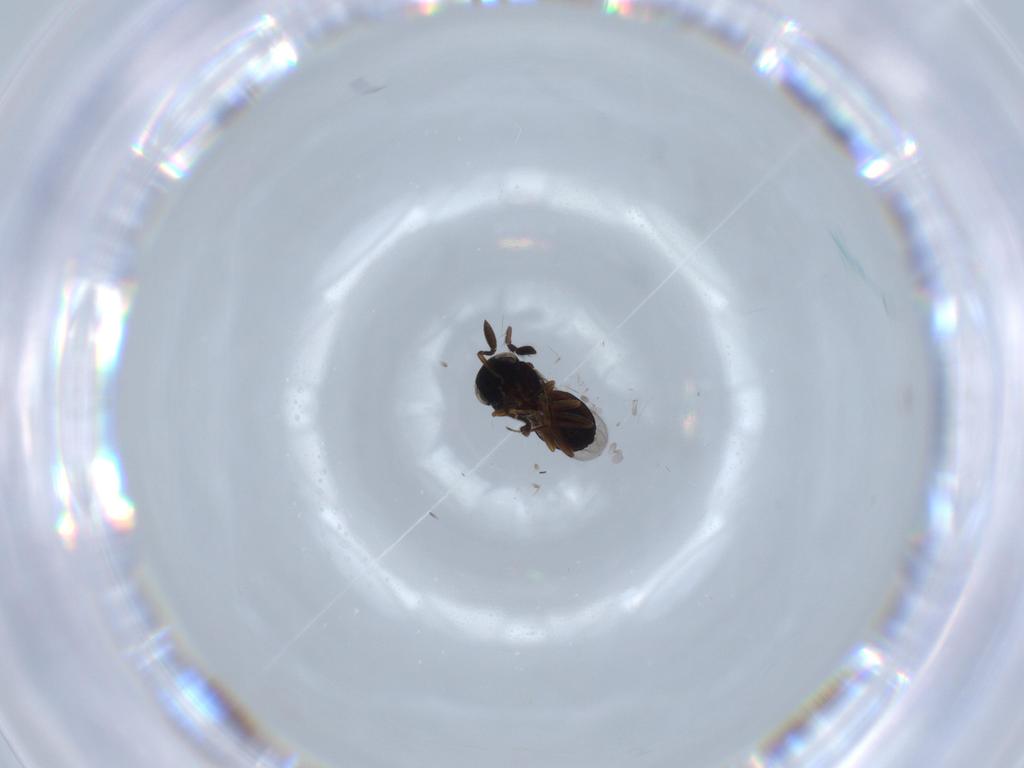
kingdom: Animalia
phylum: Arthropoda
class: Insecta
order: Coleoptera
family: Curculionidae
